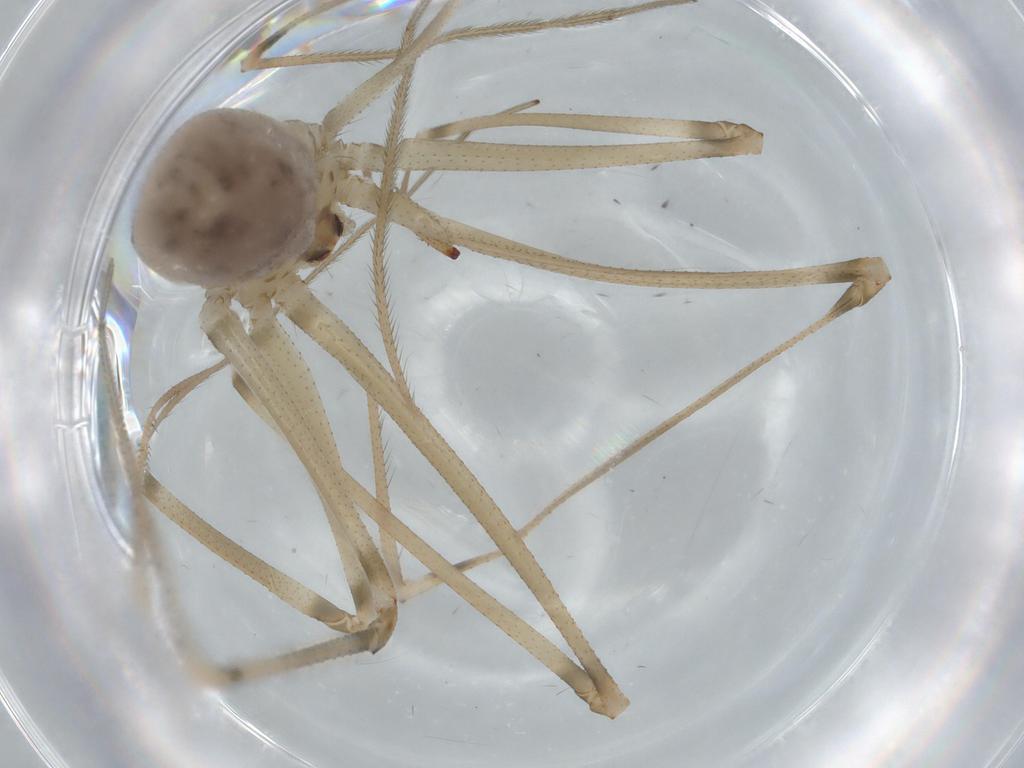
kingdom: Animalia
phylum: Arthropoda
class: Arachnida
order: Araneae
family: Pholcidae
